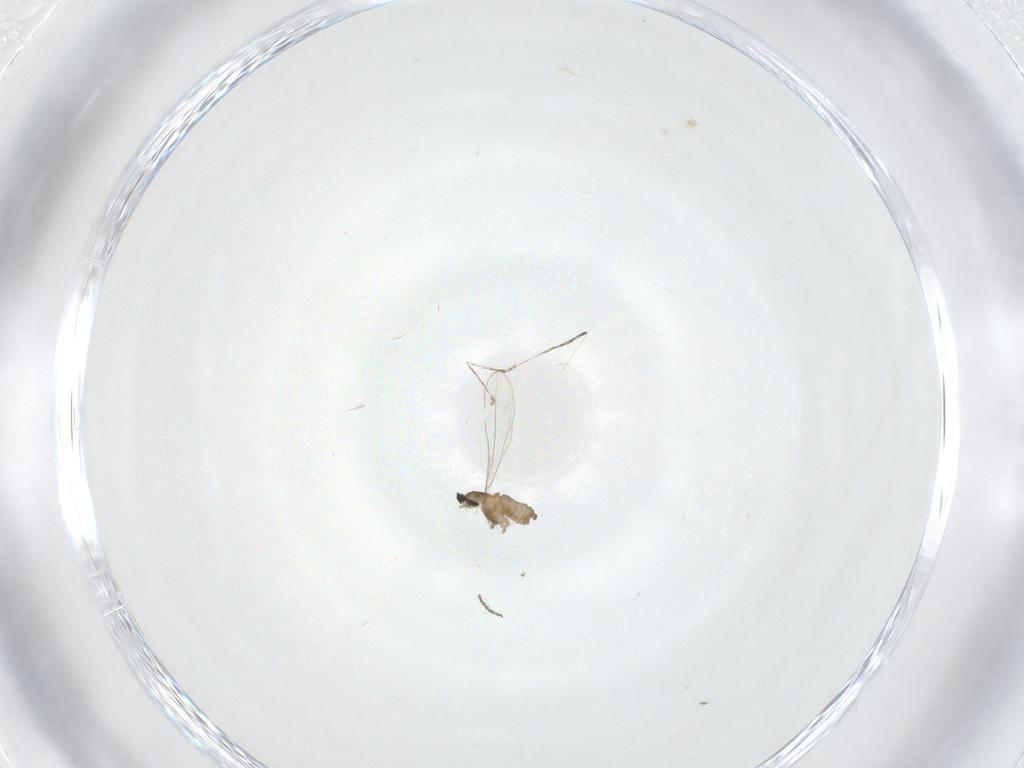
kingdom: Animalia
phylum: Arthropoda
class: Insecta
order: Diptera
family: Cecidomyiidae
